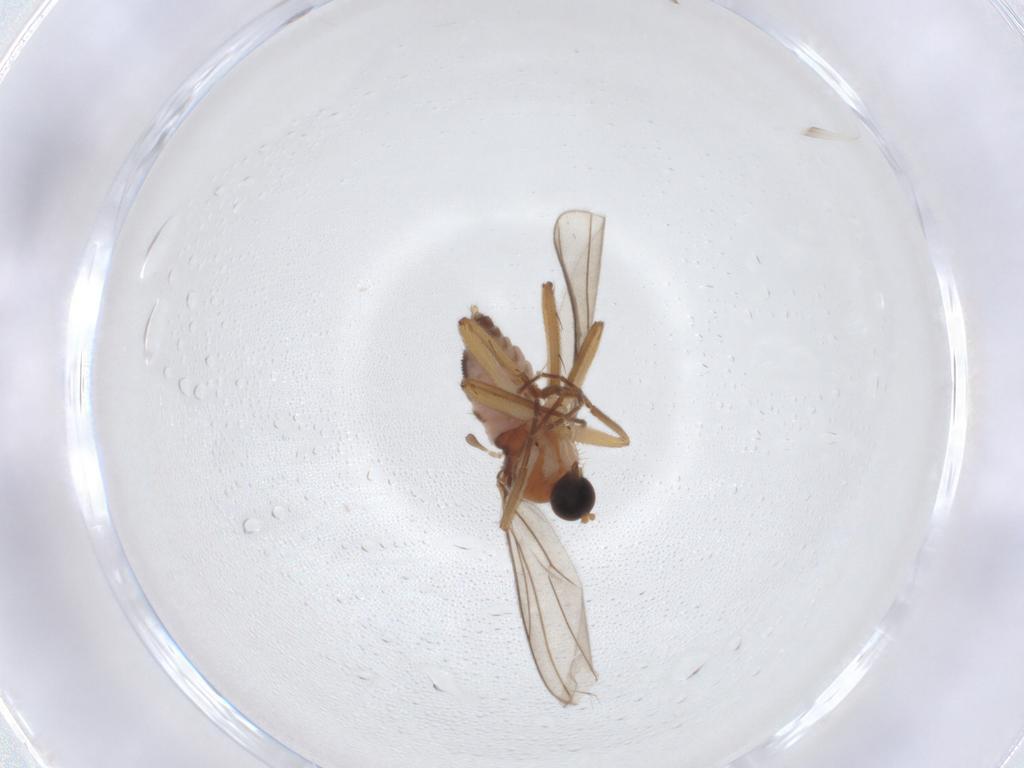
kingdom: Animalia
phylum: Arthropoda
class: Insecta
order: Diptera
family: Hybotidae
